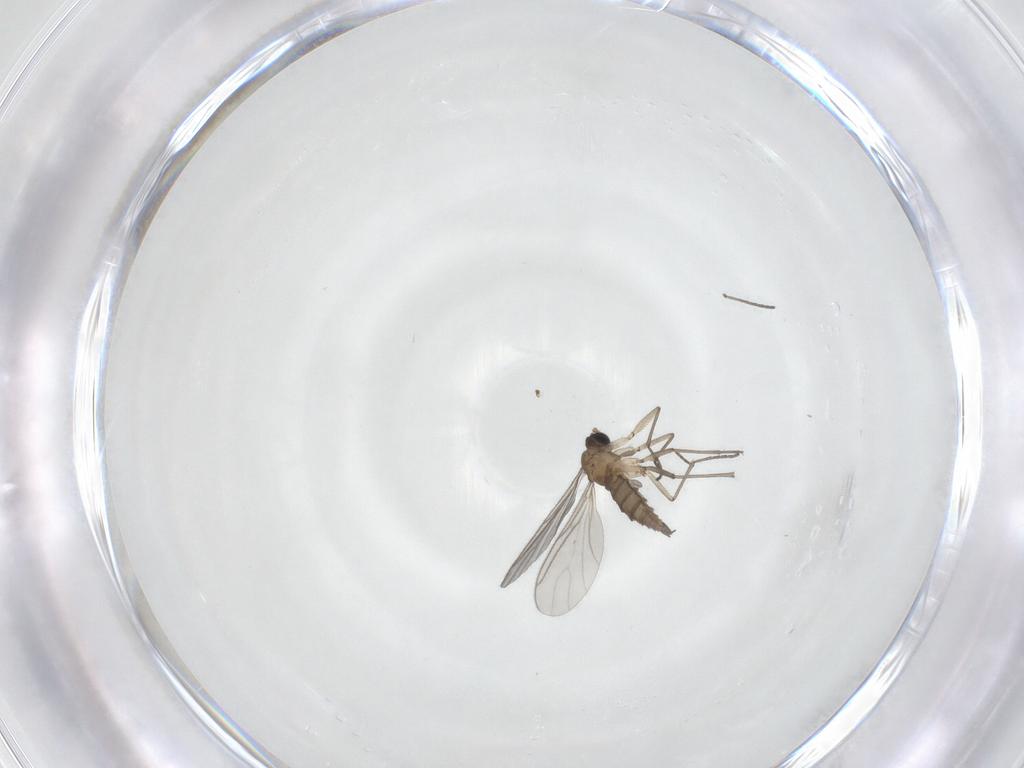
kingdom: Animalia
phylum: Arthropoda
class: Insecta
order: Diptera
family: Sciaridae
